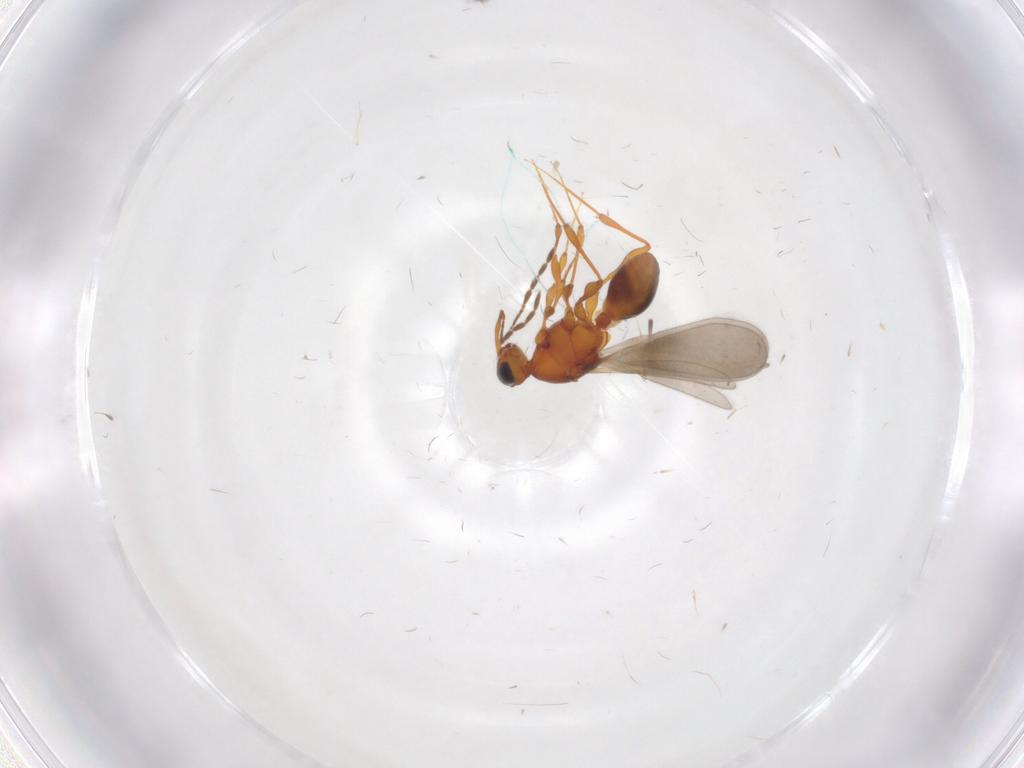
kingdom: Animalia
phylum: Arthropoda
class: Insecta
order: Hymenoptera
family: Platygastridae
